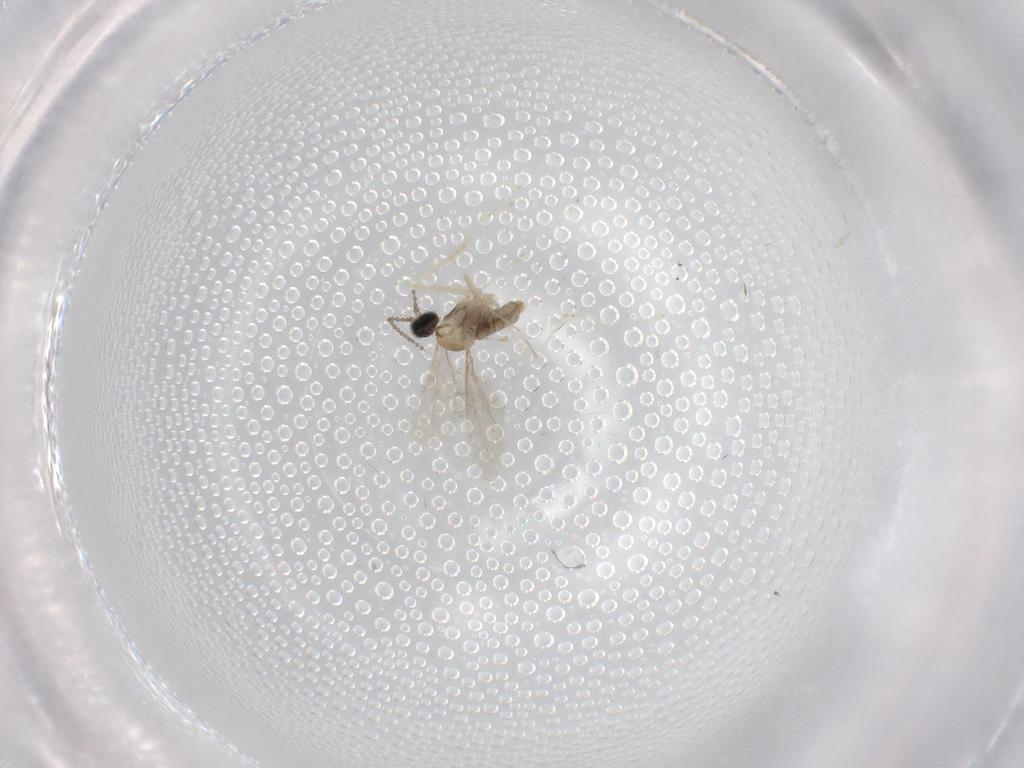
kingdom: Animalia
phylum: Arthropoda
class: Insecta
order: Diptera
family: Cecidomyiidae
